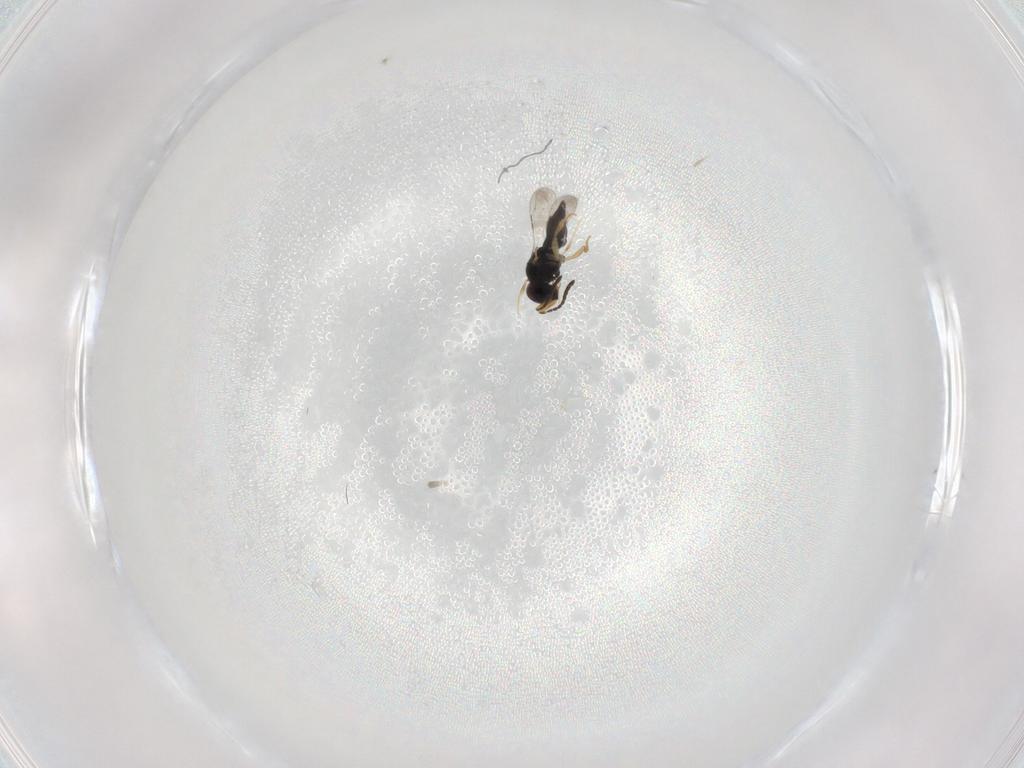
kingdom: Animalia
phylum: Arthropoda
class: Insecta
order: Hymenoptera
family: Ceraphronidae
